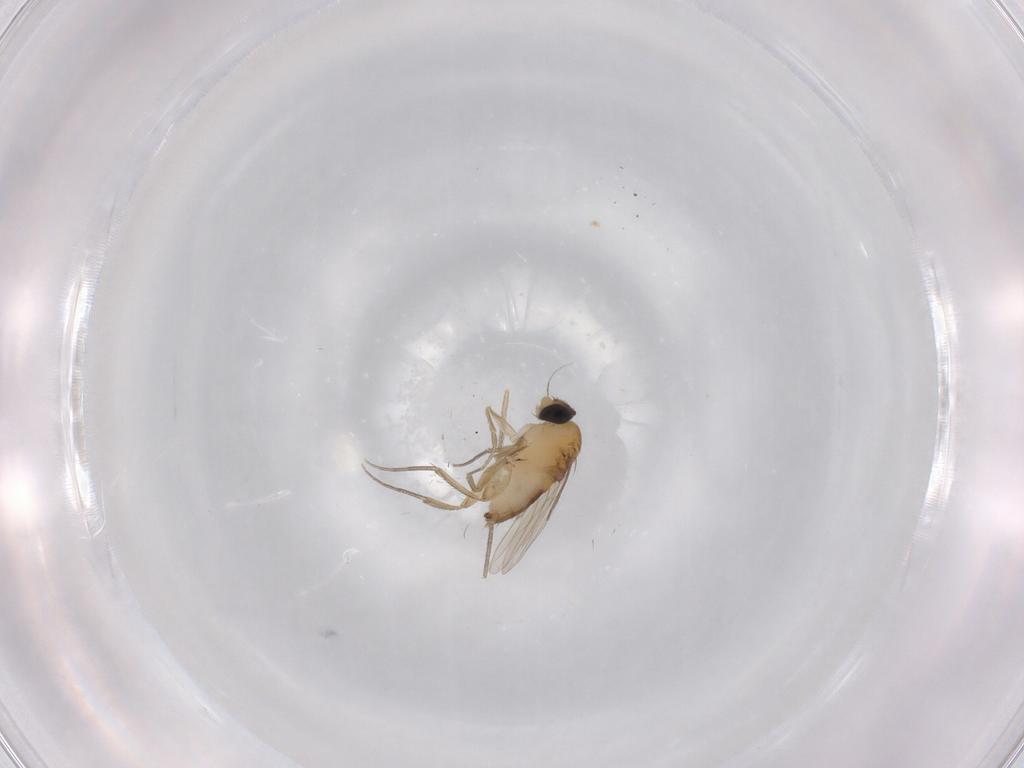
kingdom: Animalia
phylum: Arthropoda
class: Insecta
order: Diptera
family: Phoridae
